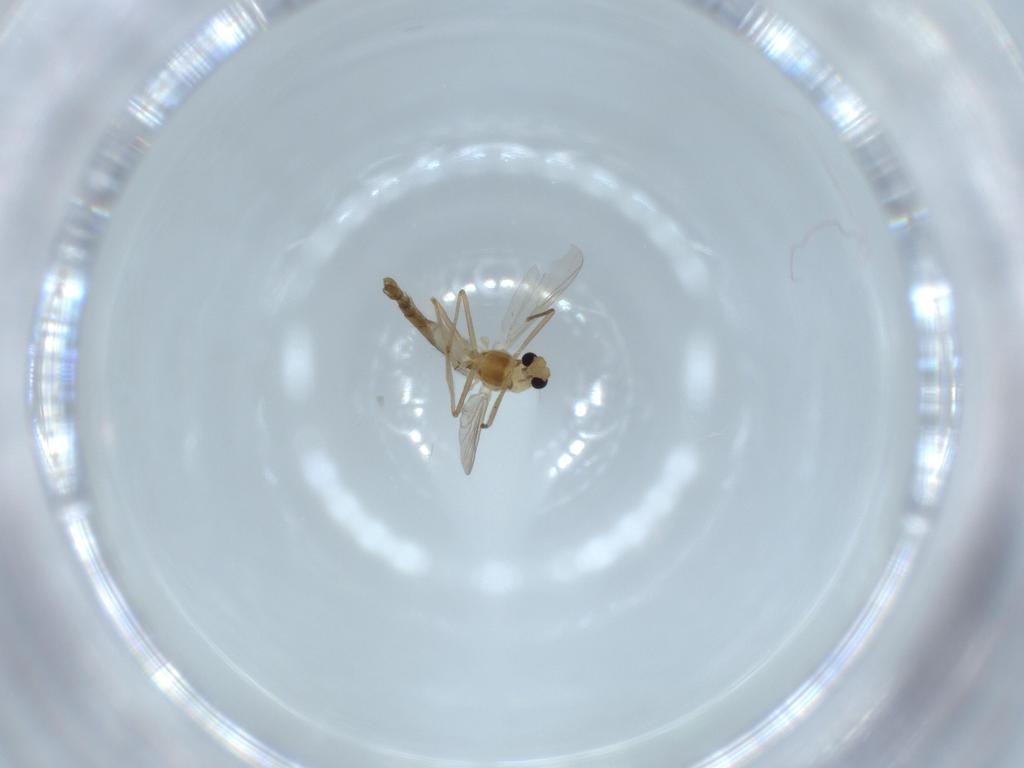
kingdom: Animalia
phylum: Arthropoda
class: Insecta
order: Diptera
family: Chironomidae
